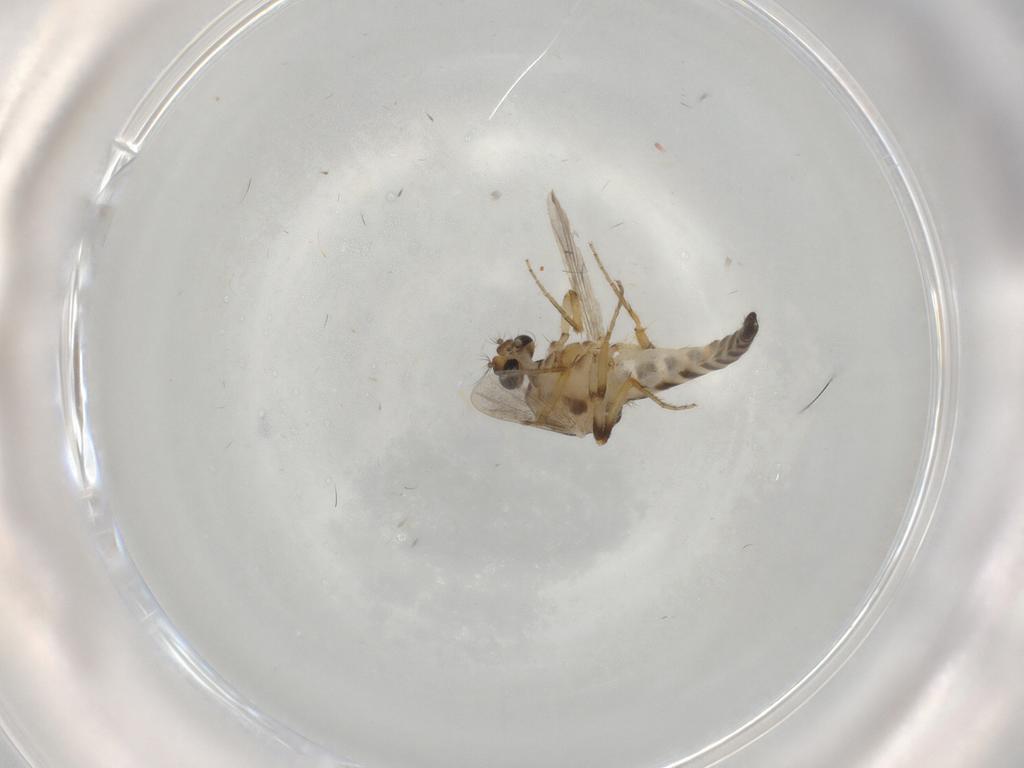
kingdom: Animalia
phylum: Arthropoda
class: Insecta
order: Diptera
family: Ceratopogonidae
